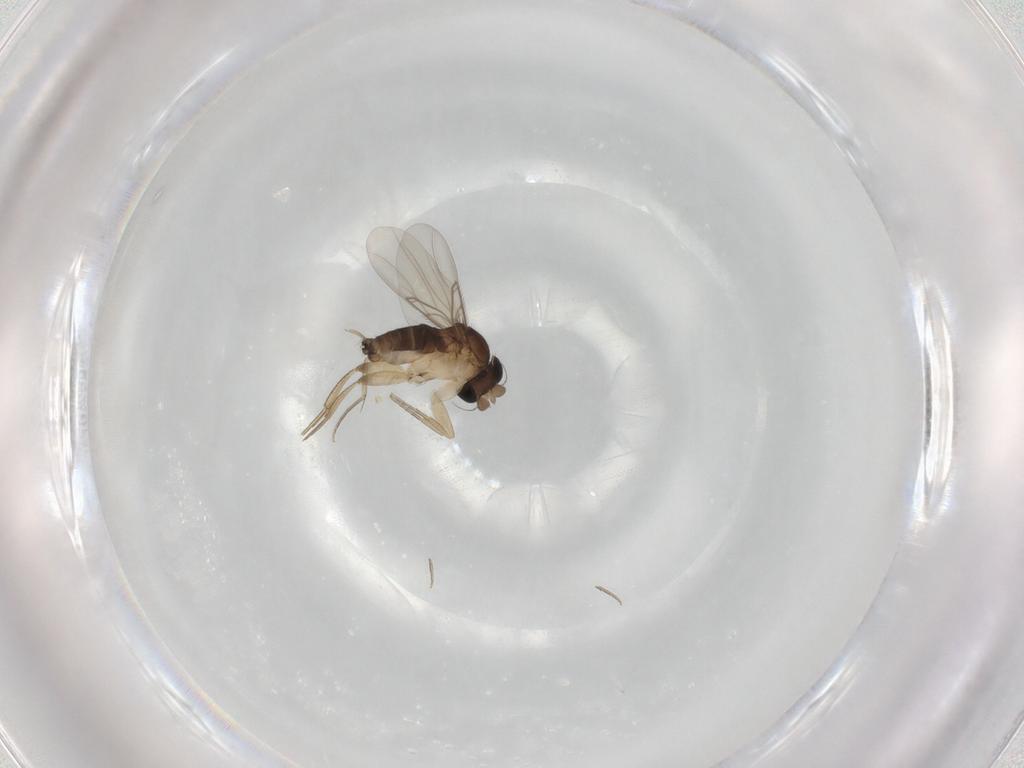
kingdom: Animalia
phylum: Arthropoda
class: Insecta
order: Diptera
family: Phoridae
